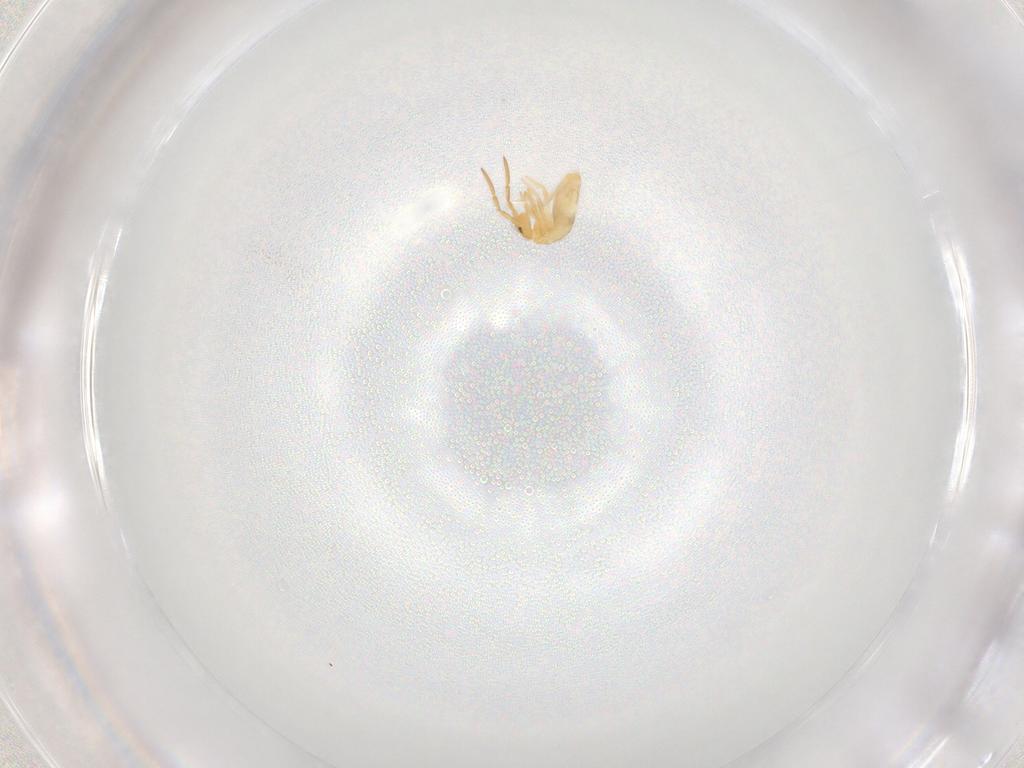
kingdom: Animalia
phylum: Arthropoda
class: Collembola
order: Entomobryomorpha
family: Entomobryidae
